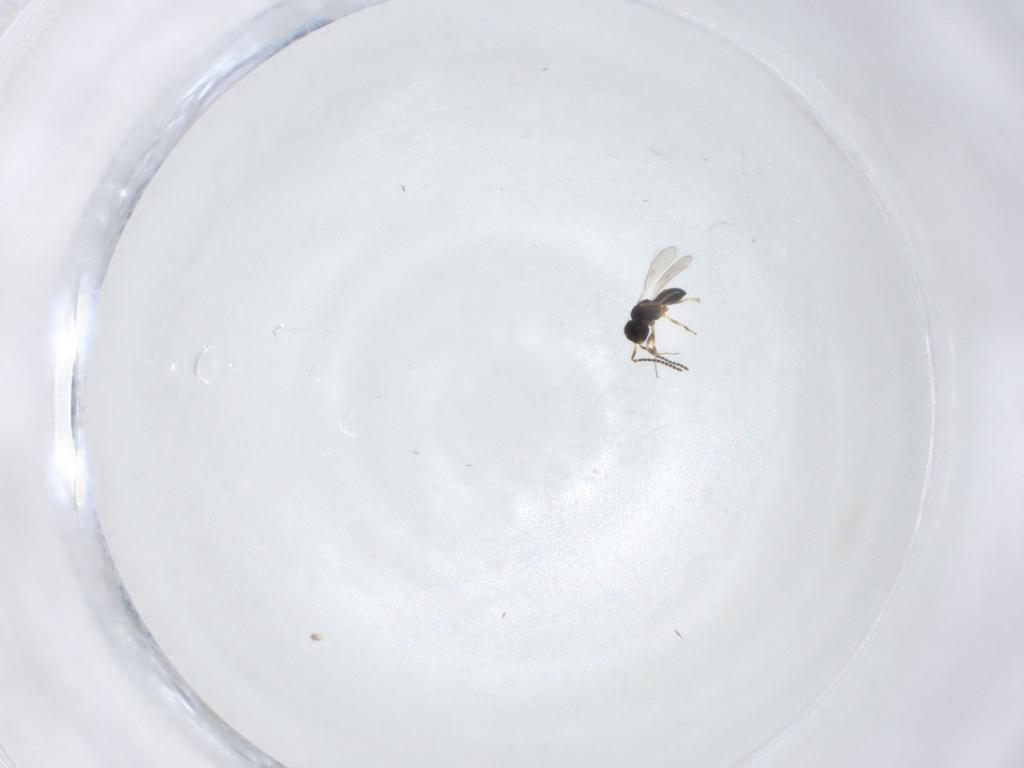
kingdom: Animalia
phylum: Arthropoda
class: Insecta
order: Hymenoptera
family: Scelionidae
